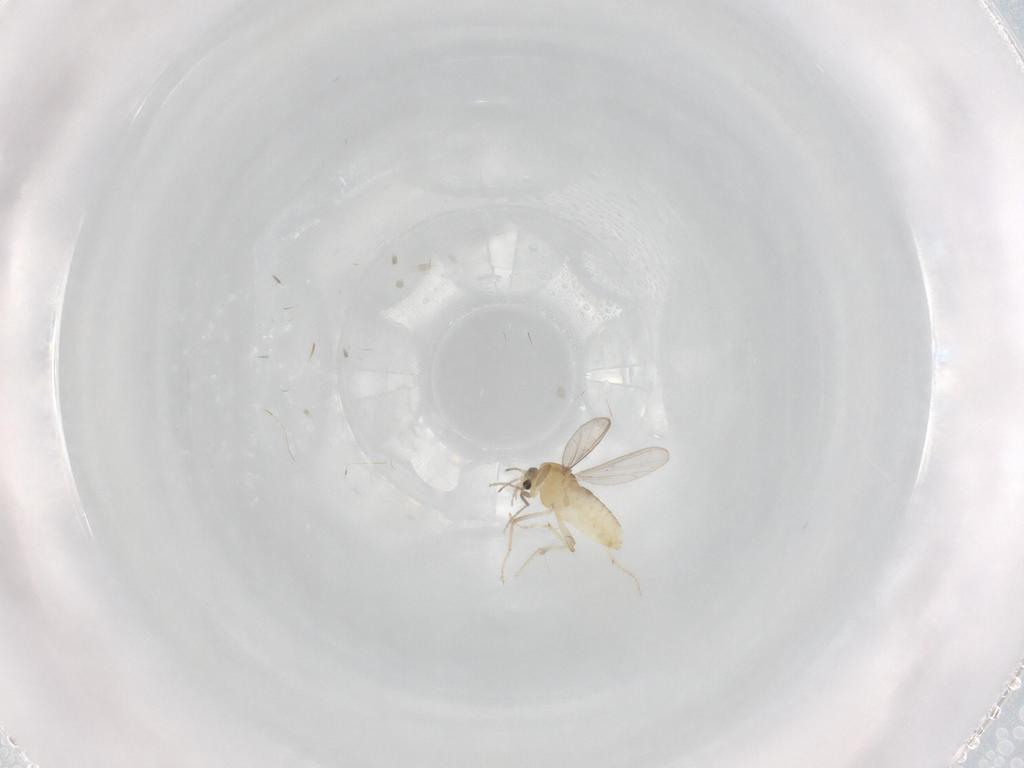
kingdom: Animalia
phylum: Arthropoda
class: Insecta
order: Diptera
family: Chironomidae
